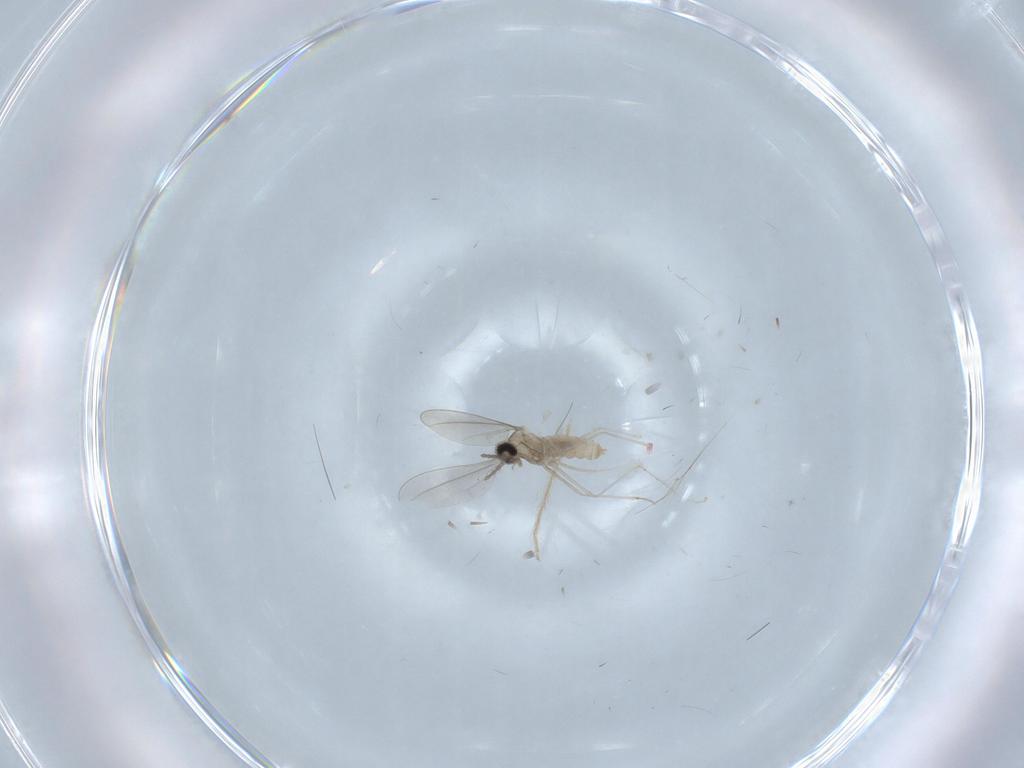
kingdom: Animalia
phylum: Arthropoda
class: Insecta
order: Diptera
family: Cecidomyiidae
